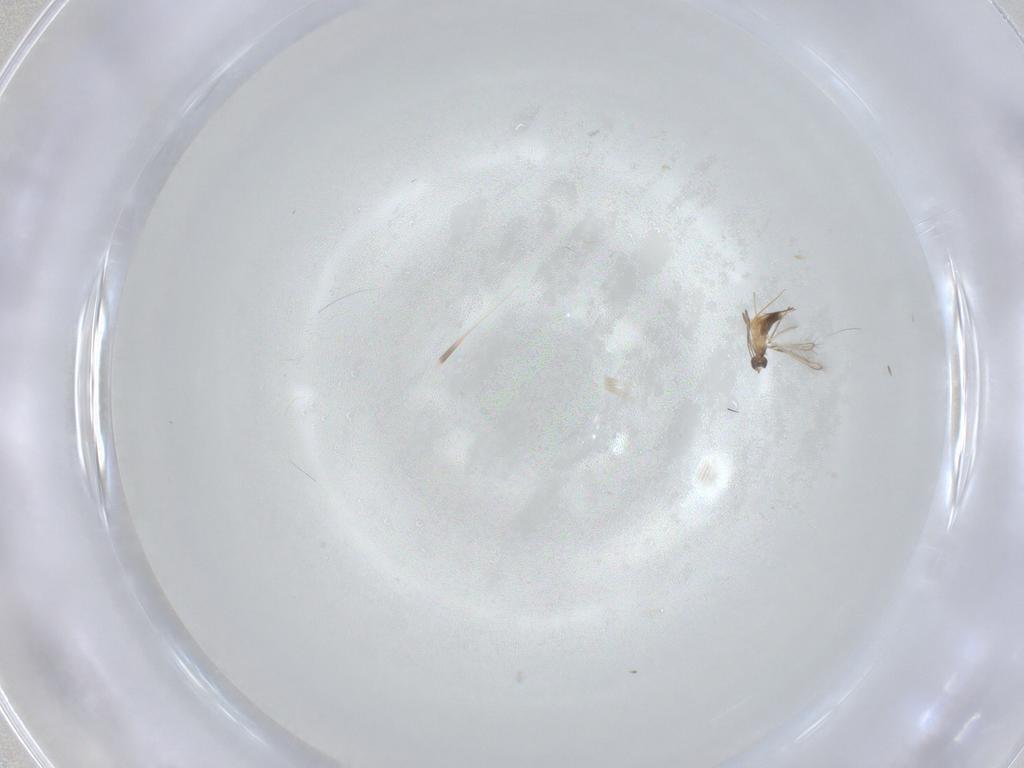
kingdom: Animalia
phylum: Arthropoda
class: Insecta
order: Hymenoptera
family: Mymaridae
